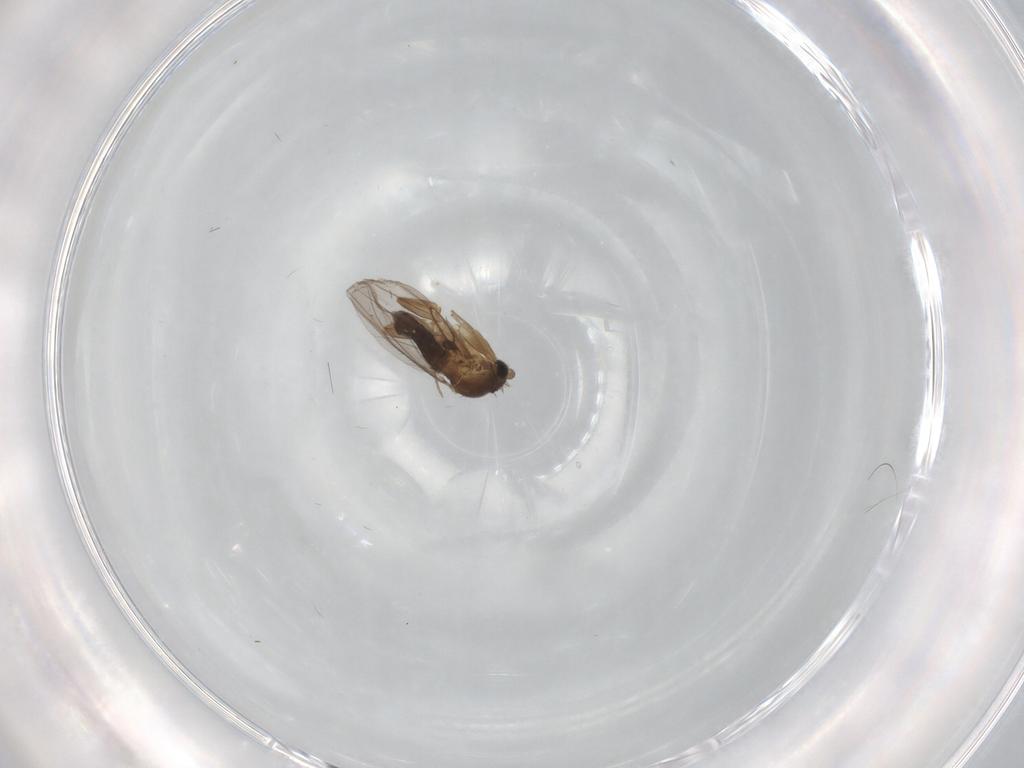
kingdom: Animalia
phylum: Arthropoda
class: Insecta
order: Diptera
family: Phoridae
